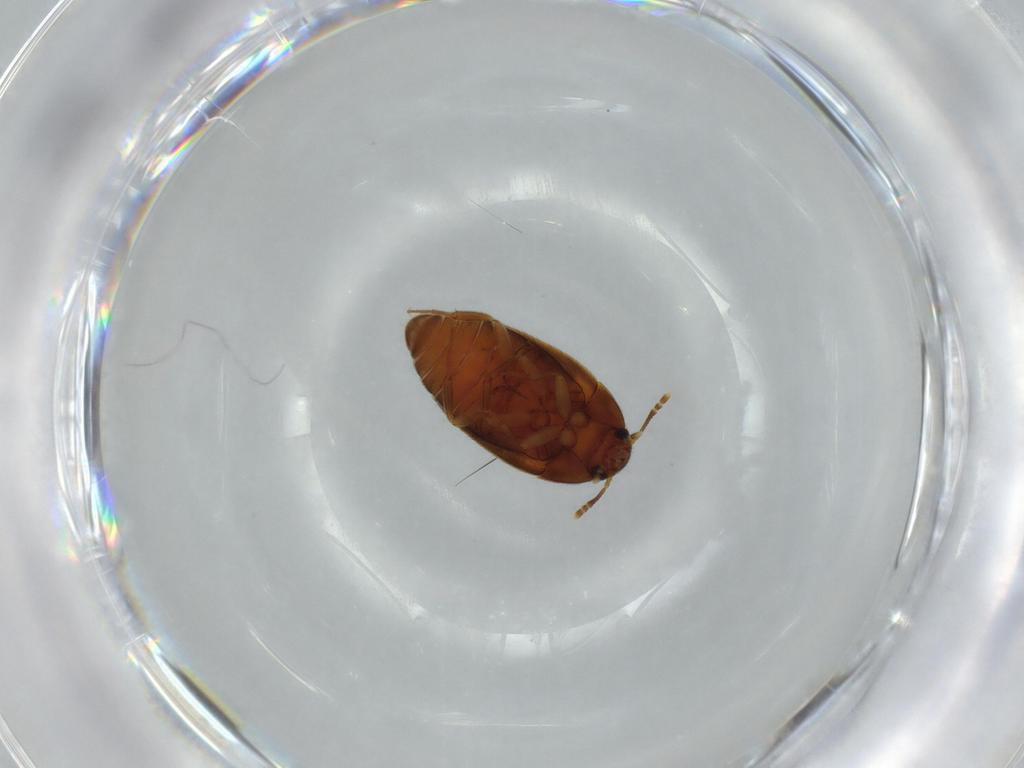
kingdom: Animalia
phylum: Arthropoda
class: Insecta
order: Coleoptera
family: Mycetophagidae
